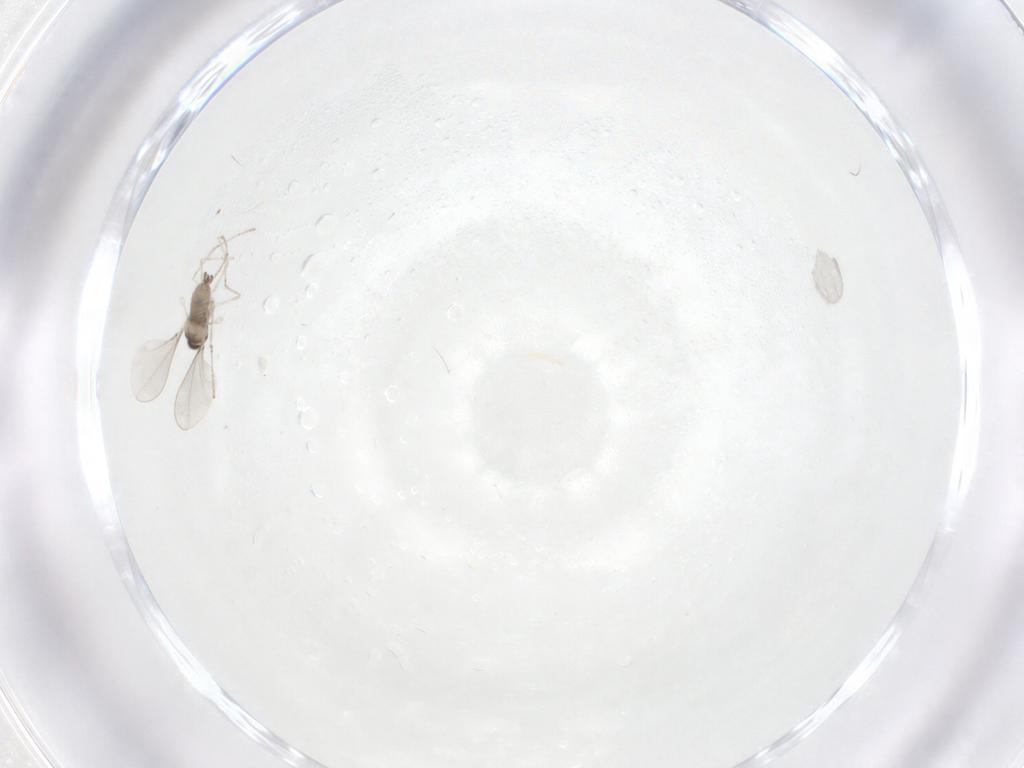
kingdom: Animalia
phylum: Arthropoda
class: Insecta
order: Diptera
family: Cecidomyiidae
